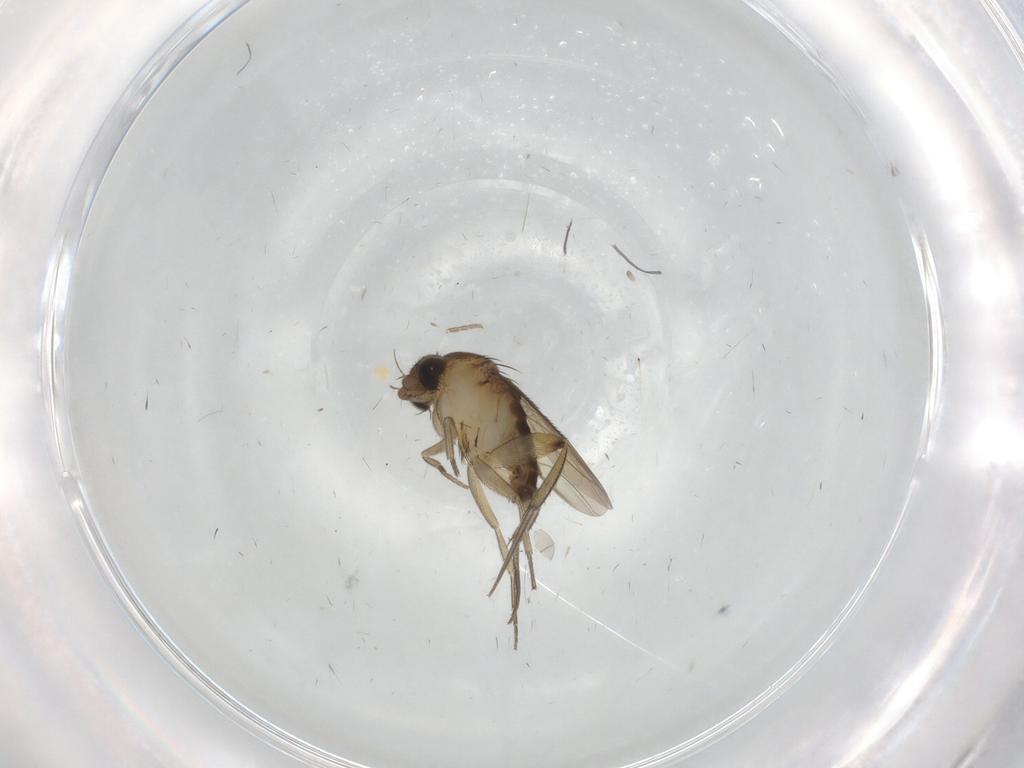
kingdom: Animalia
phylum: Arthropoda
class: Insecta
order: Diptera
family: Phoridae
